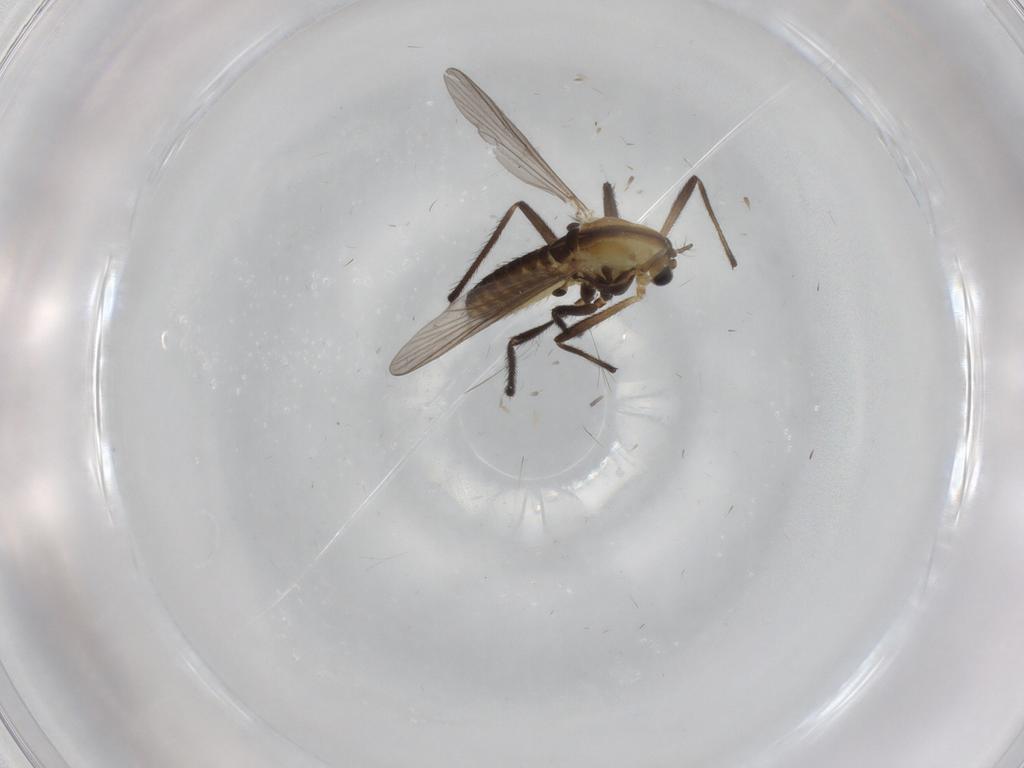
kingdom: Animalia
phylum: Arthropoda
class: Insecta
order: Diptera
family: Chironomidae
